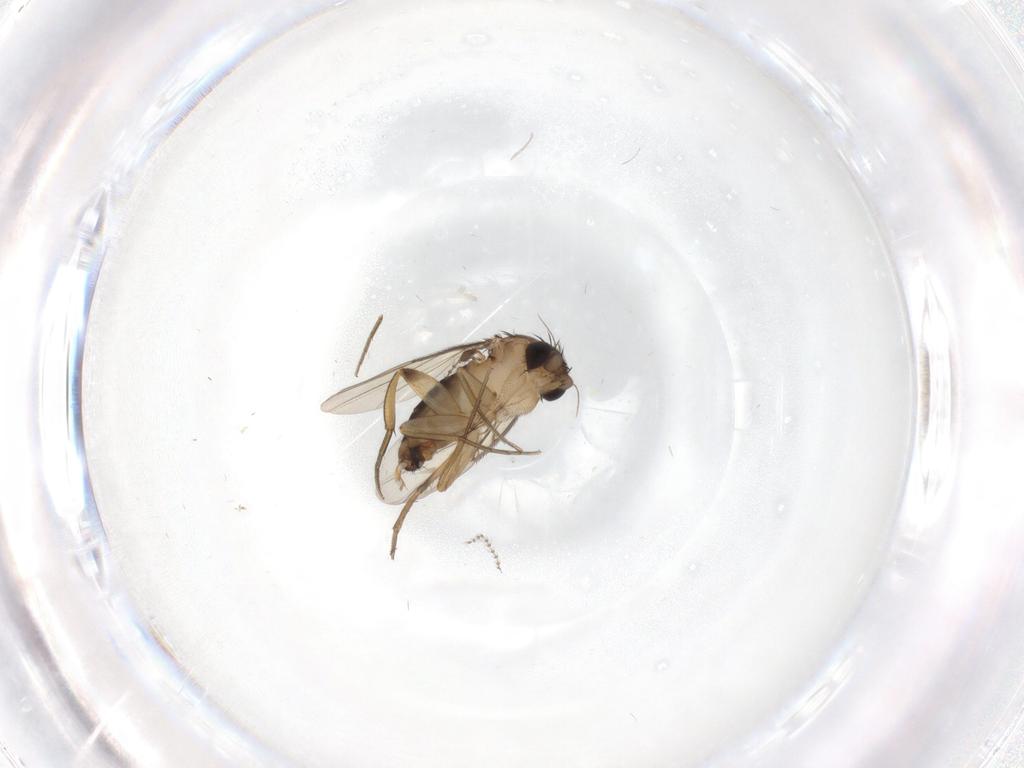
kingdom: Animalia
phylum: Arthropoda
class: Insecta
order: Diptera
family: Phoridae
